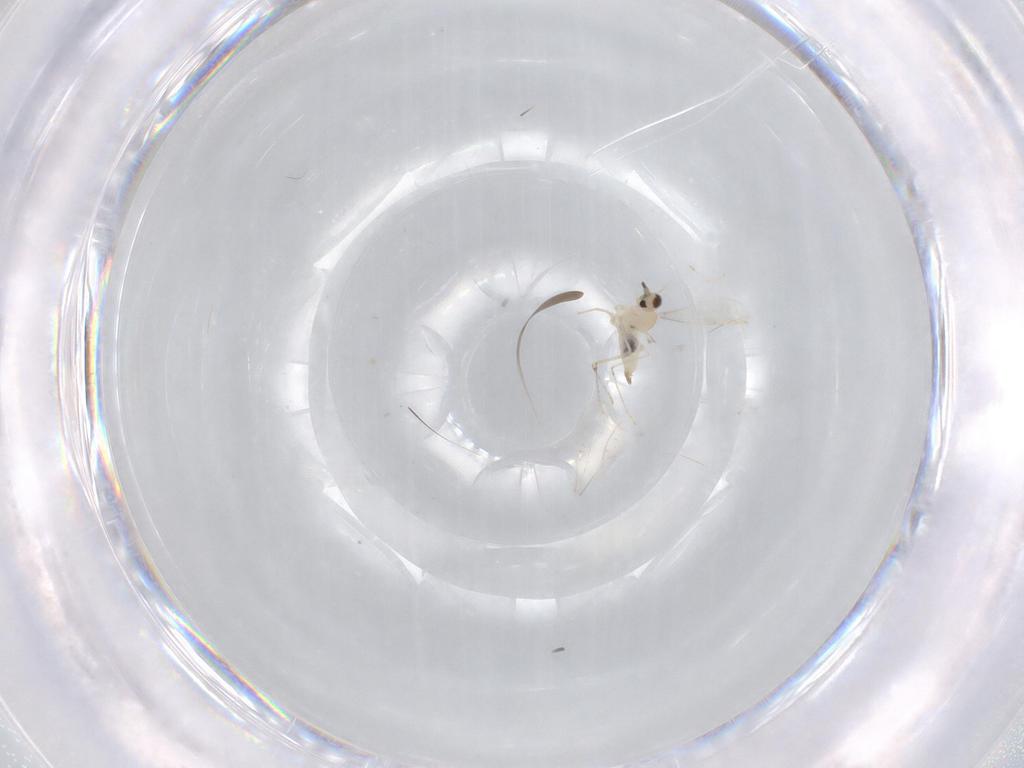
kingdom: Animalia
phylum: Arthropoda
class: Insecta
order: Diptera
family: Cecidomyiidae
